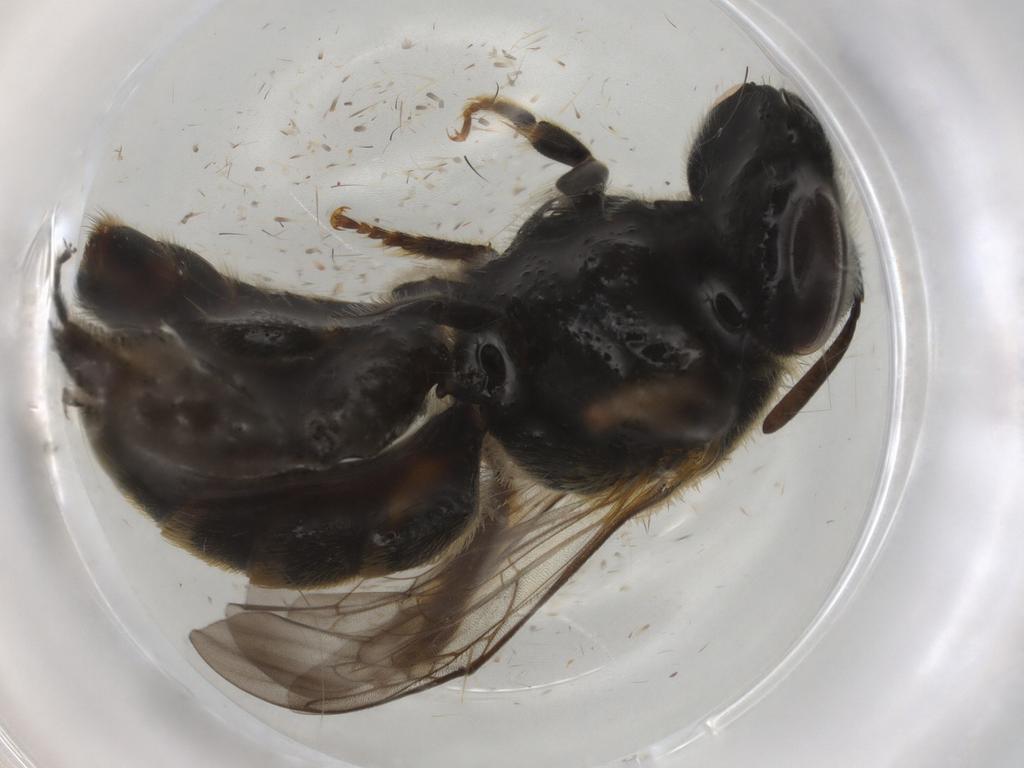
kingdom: Animalia
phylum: Arthropoda
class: Insecta
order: Hymenoptera
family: Halictidae
